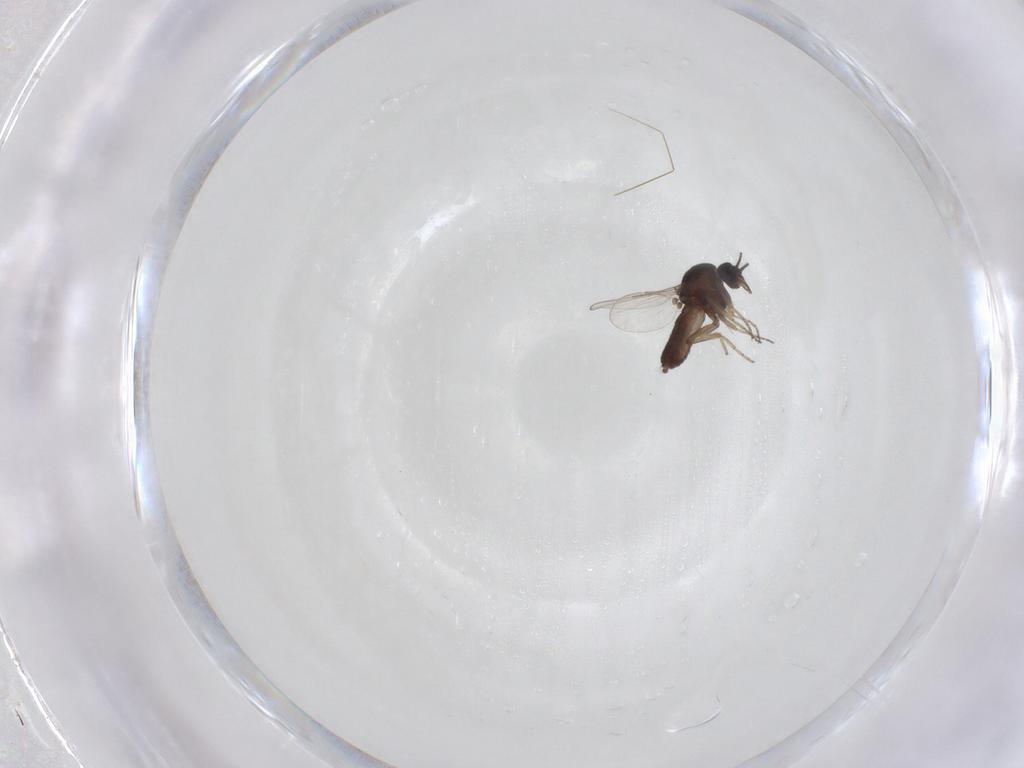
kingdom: Animalia
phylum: Arthropoda
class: Insecta
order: Diptera
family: Ceratopogonidae
